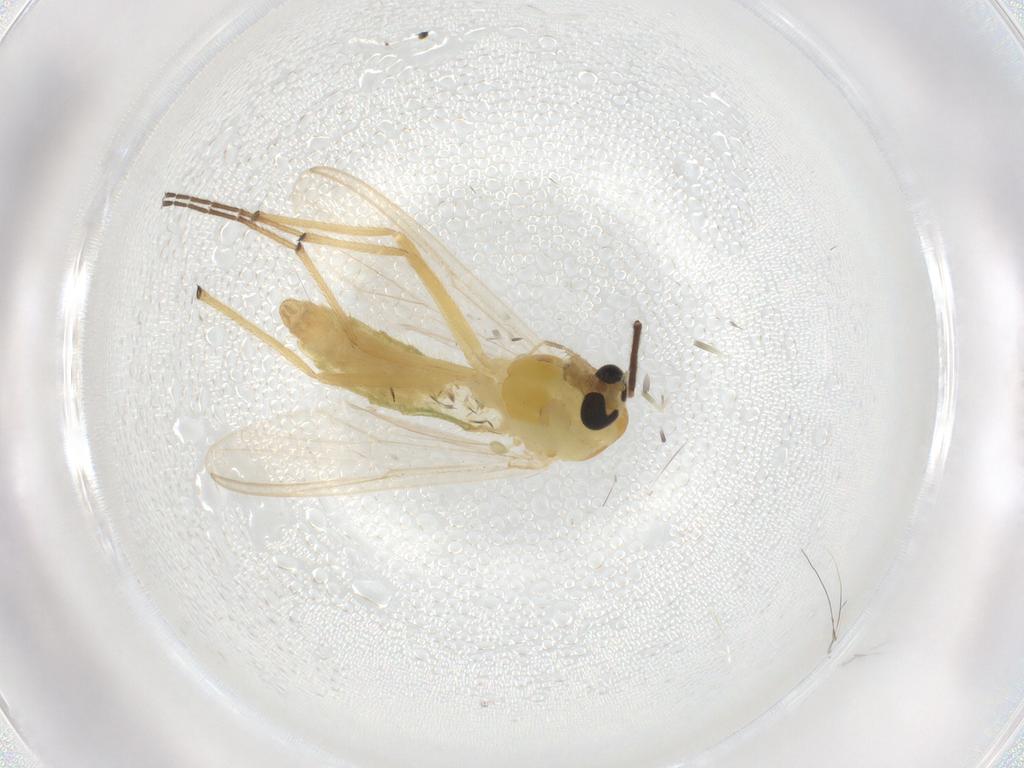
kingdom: Animalia
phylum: Arthropoda
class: Insecta
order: Diptera
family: Chironomidae
